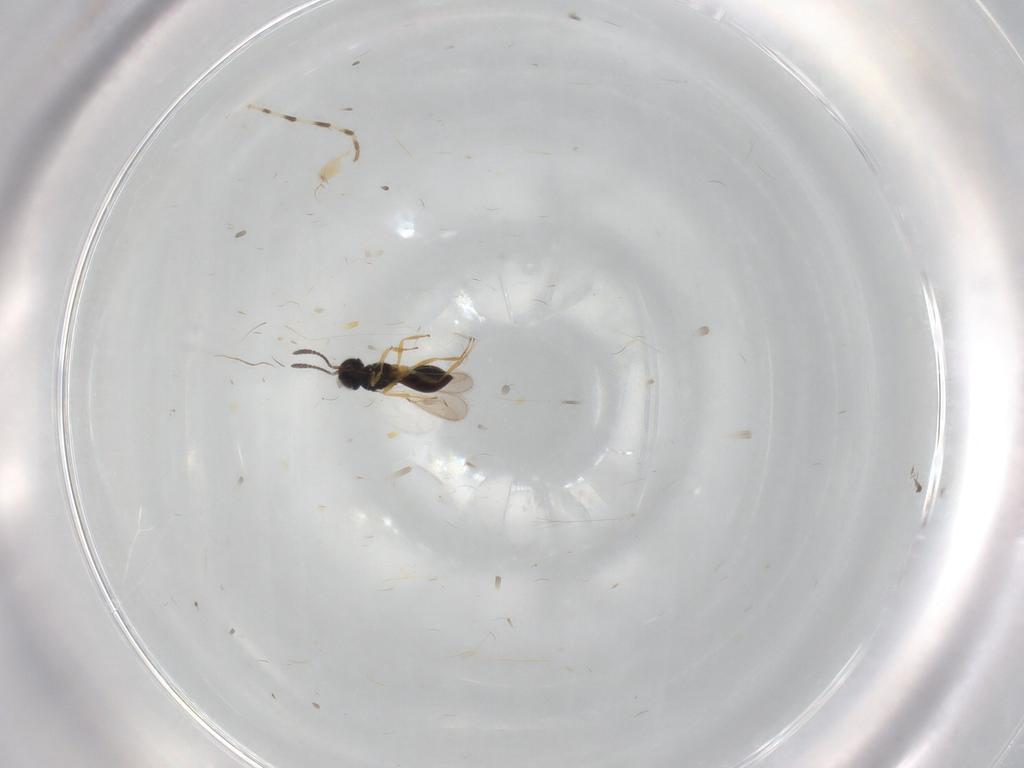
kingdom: Animalia
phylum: Arthropoda
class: Insecta
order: Hymenoptera
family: Scelionidae
